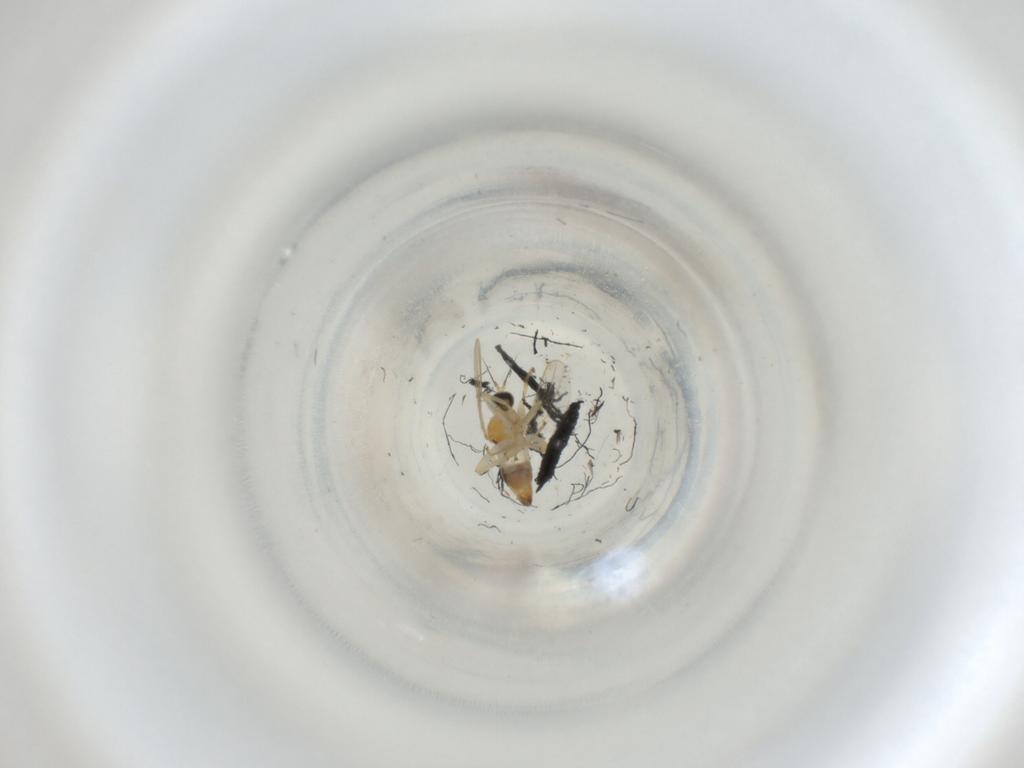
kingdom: Animalia
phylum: Arthropoda
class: Insecta
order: Diptera
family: Hybotidae
